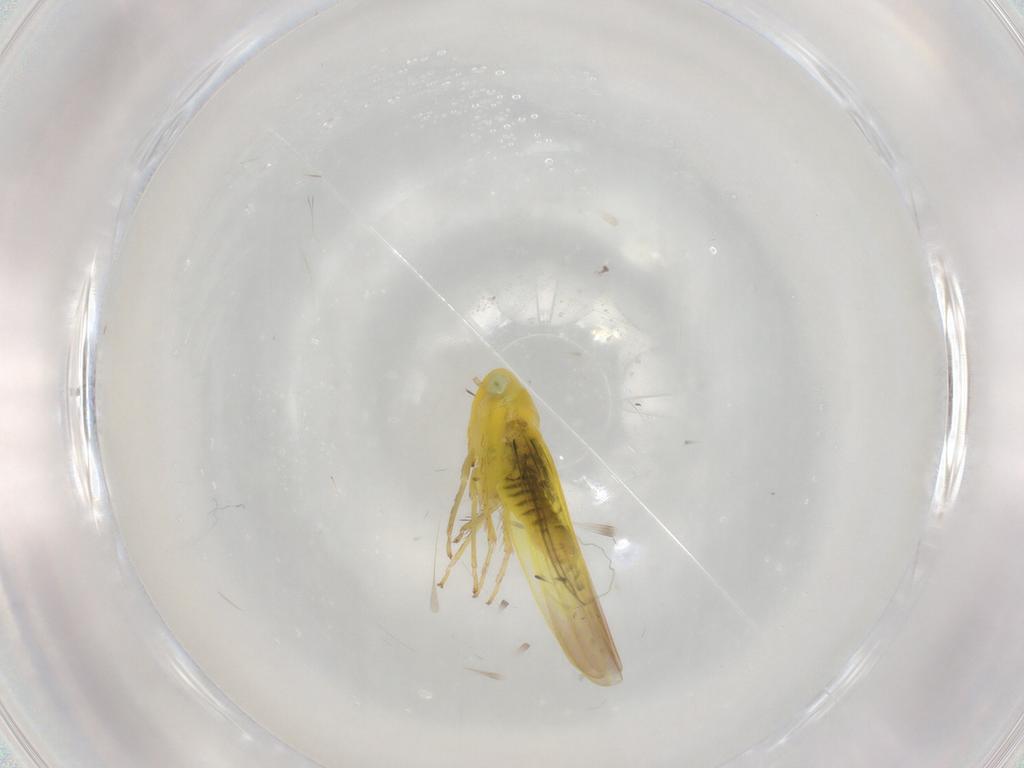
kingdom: Animalia
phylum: Arthropoda
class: Insecta
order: Hemiptera
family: Cicadellidae
